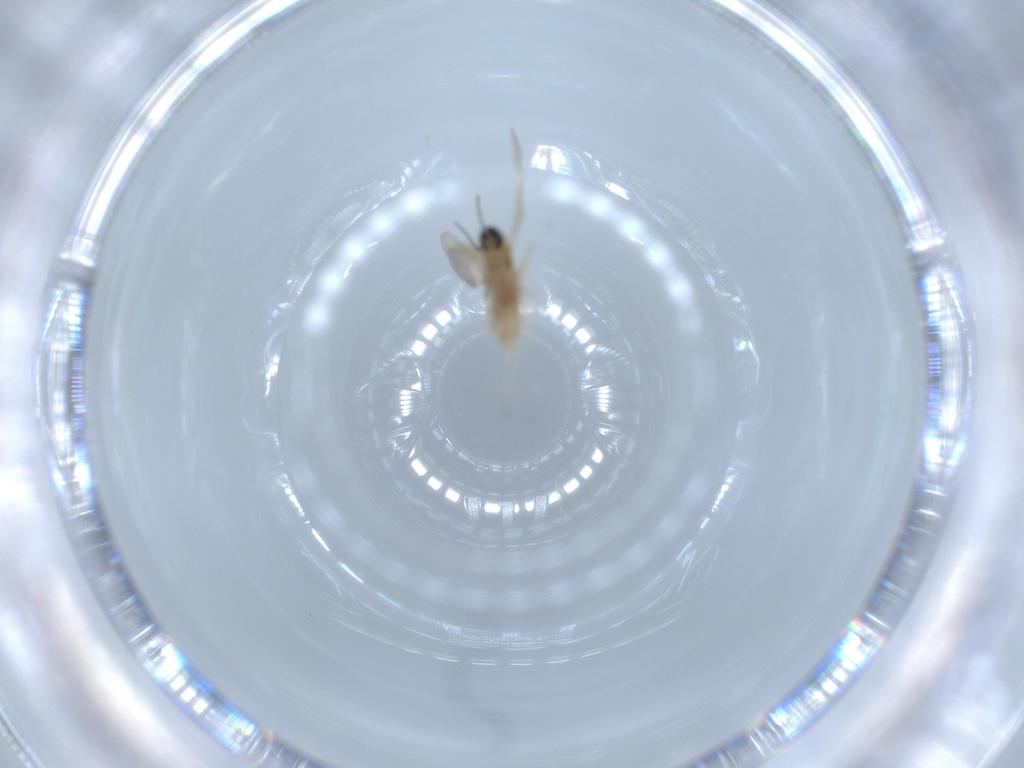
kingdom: Animalia
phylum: Arthropoda
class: Insecta
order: Diptera
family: Cecidomyiidae
